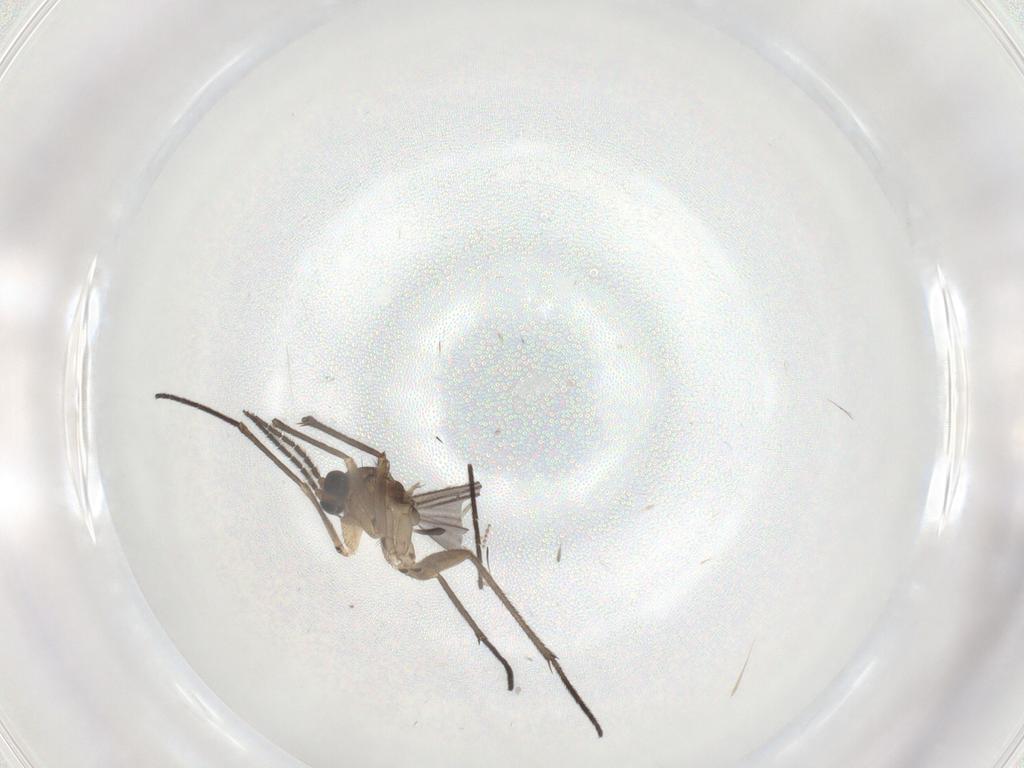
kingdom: Animalia
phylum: Arthropoda
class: Insecta
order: Diptera
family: Sciaridae
